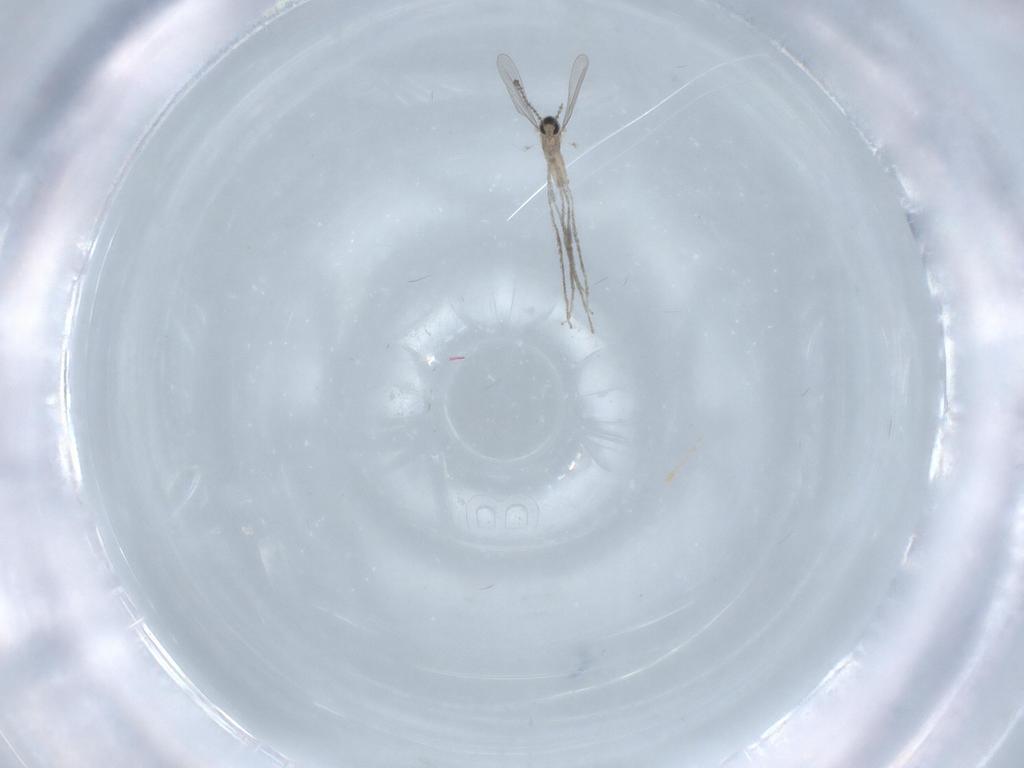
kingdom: Animalia
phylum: Arthropoda
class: Insecta
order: Diptera
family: Cecidomyiidae
